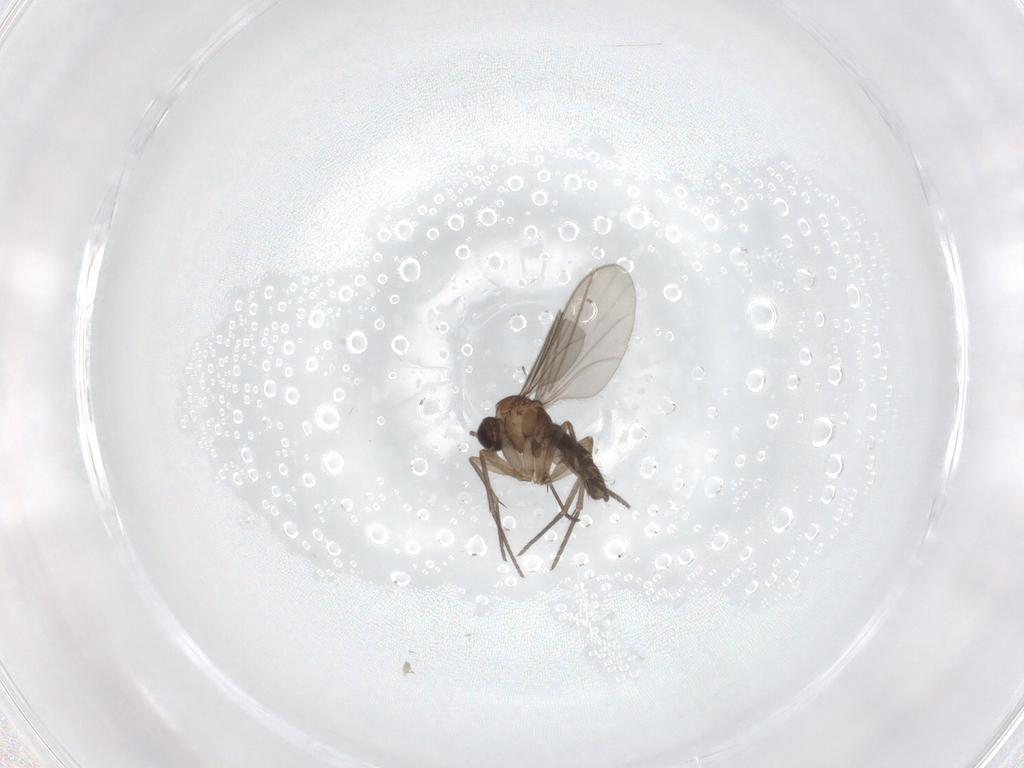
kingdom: Animalia
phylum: Arthropoda
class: Insecta
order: Diptera
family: Sciaridae
